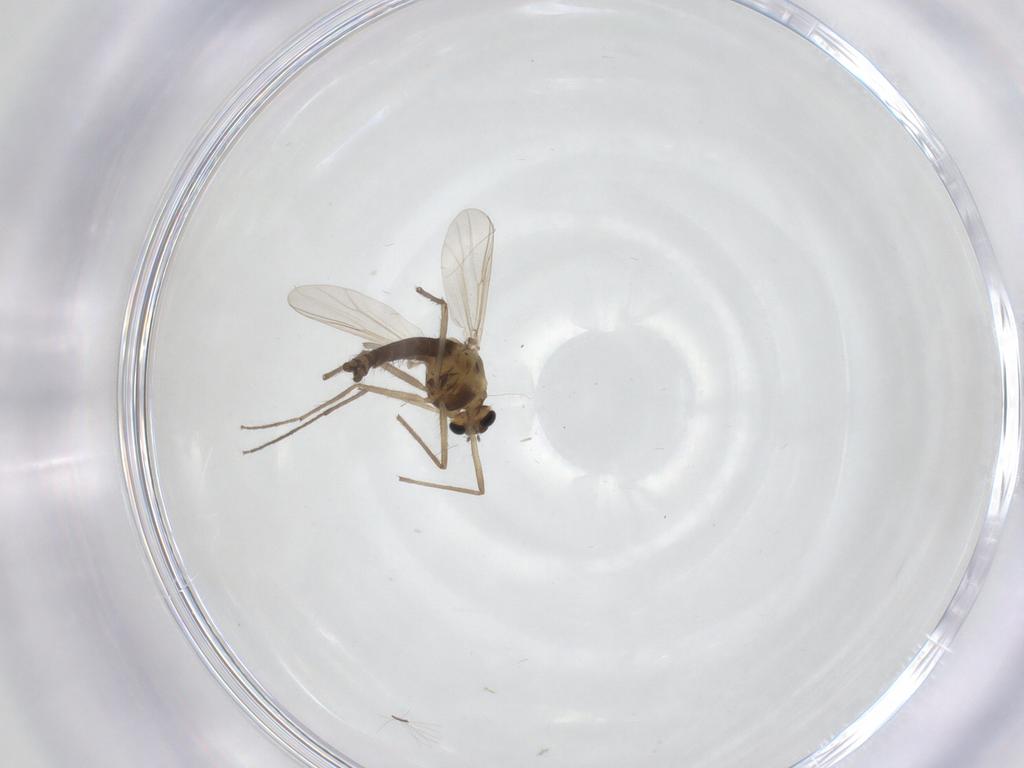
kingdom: Animalia
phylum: Arthropoda
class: Insecta
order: Diptera
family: Chironomidae
